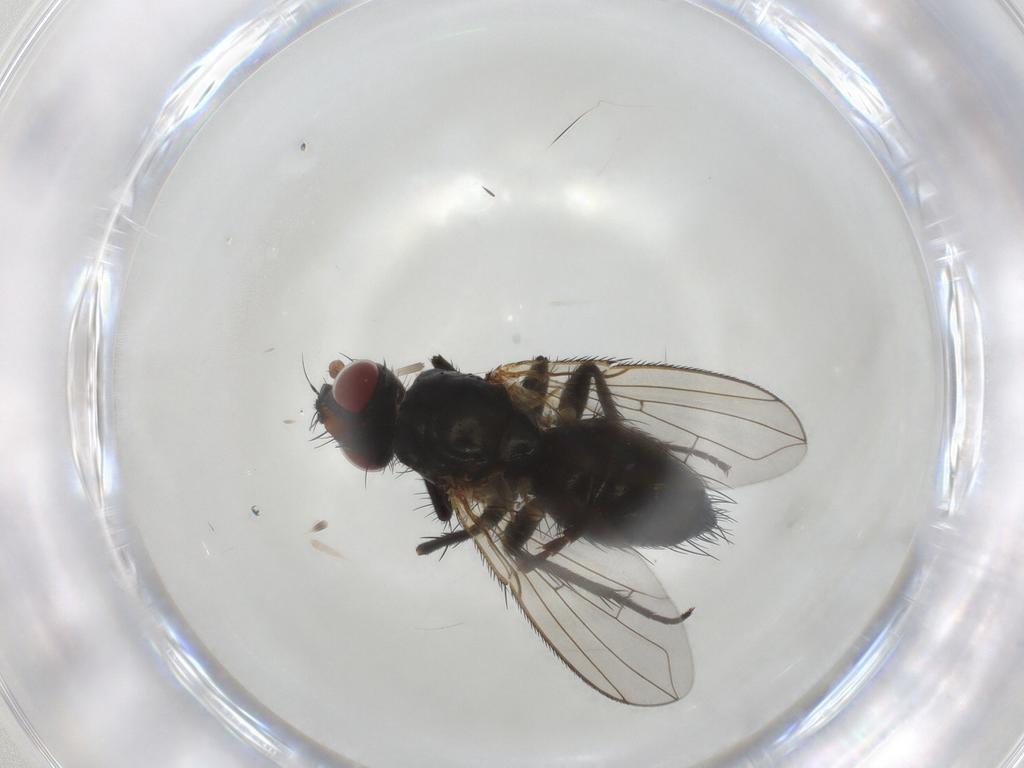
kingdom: Animalia
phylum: Arthropoda
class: Insecta
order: Diptera
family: Calliphoridae
